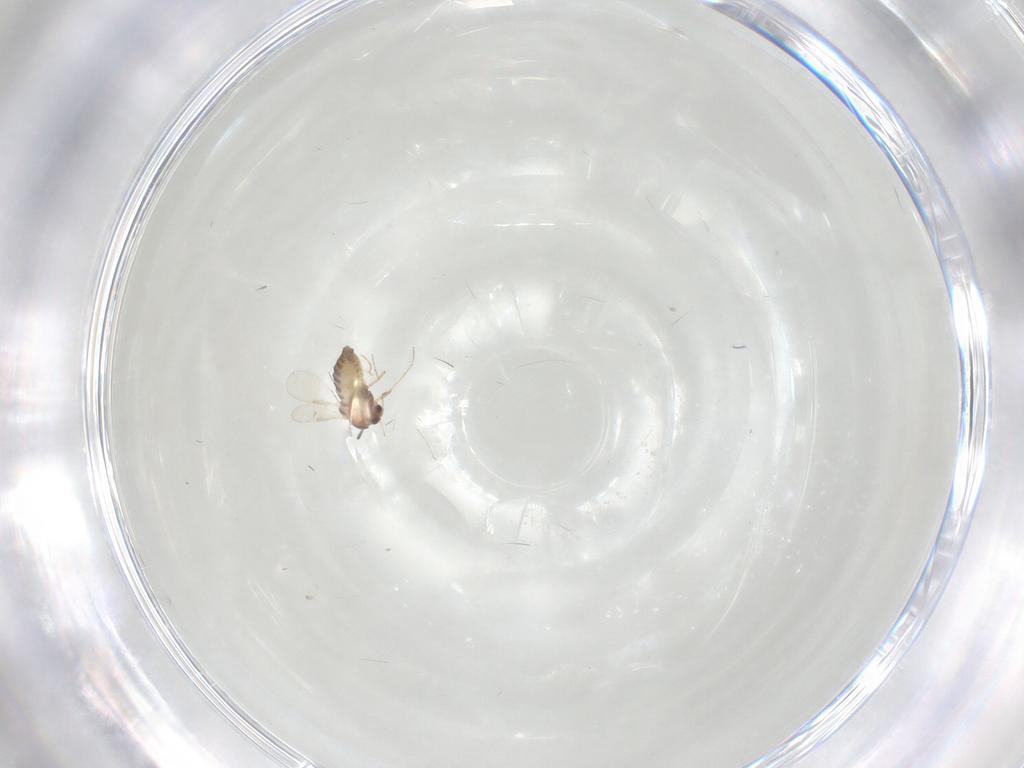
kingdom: Animalia
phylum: Arthropoda
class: Insecta
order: Diptera
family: Chironomidae
